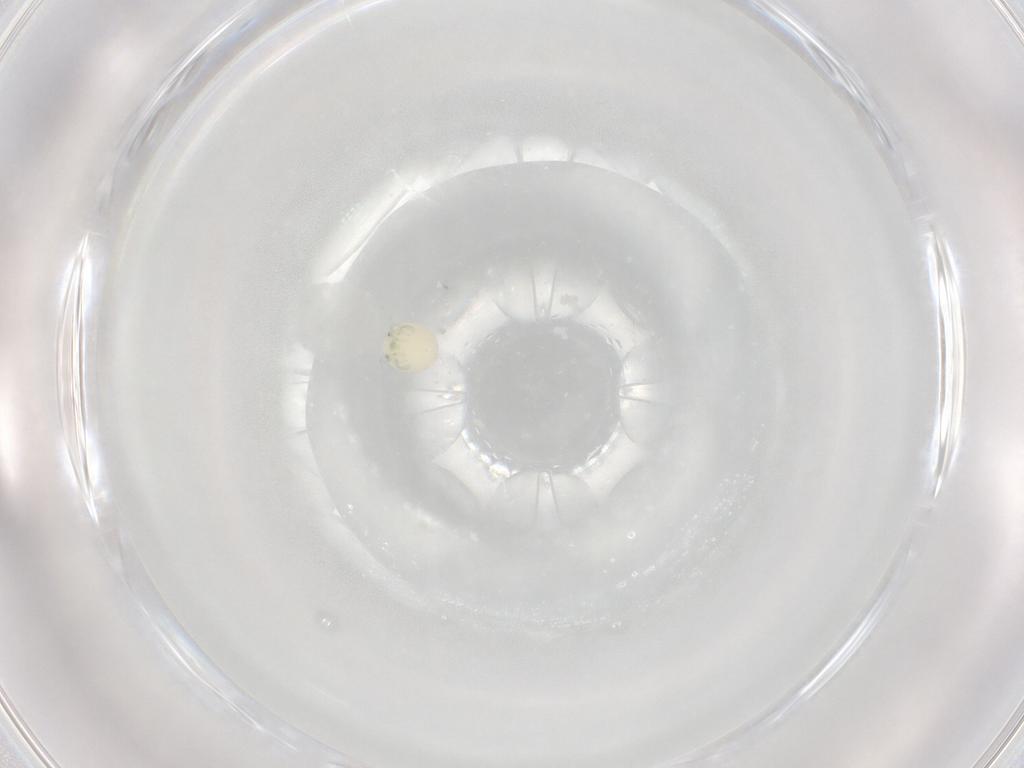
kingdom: Animalia
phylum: Arthropoda
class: Arachnida
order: Trombidiformes
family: Arrenuridae
